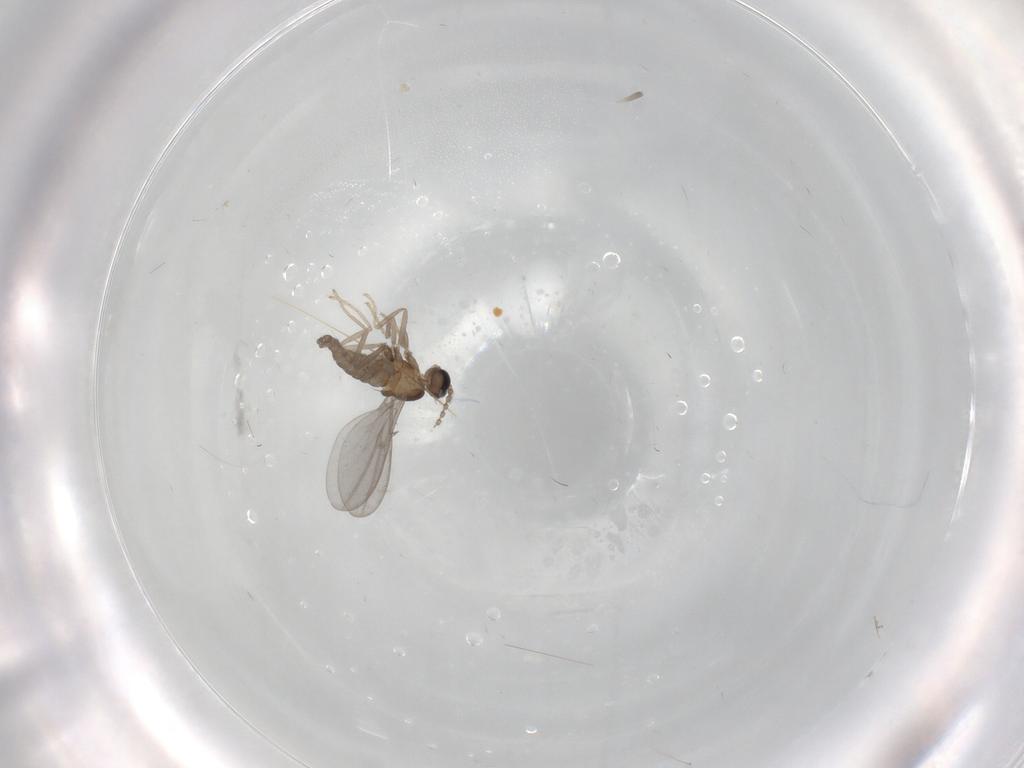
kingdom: Animalia
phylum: Arthropoda
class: Insecta
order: Diptera
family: Cecidomyiidae
